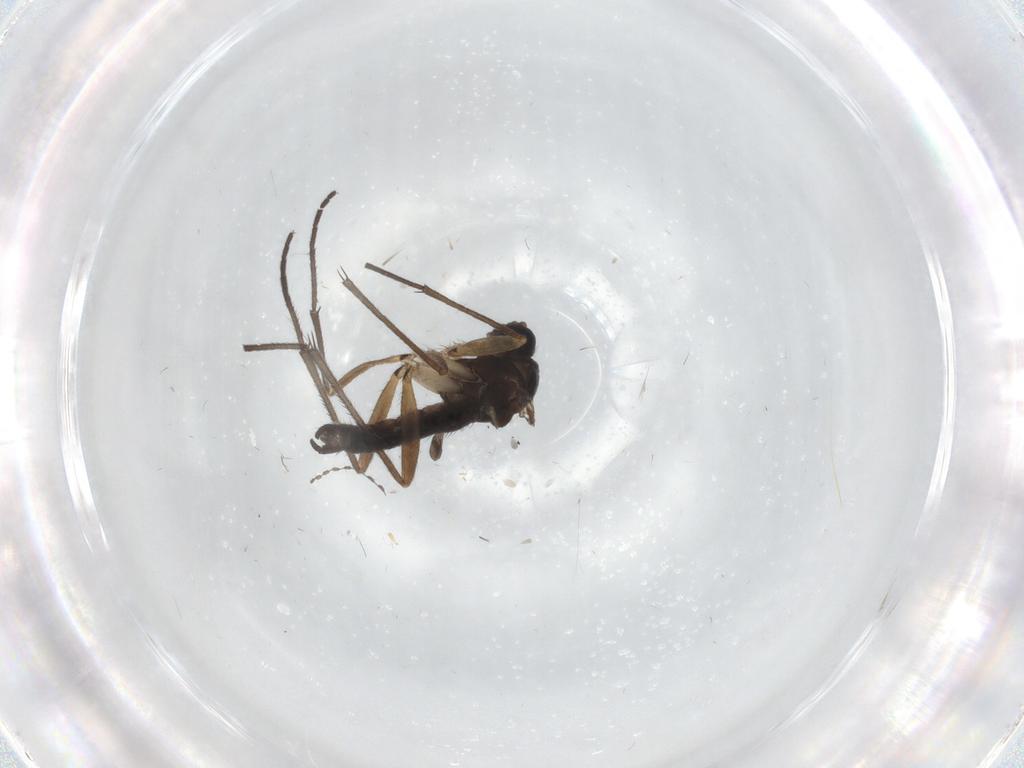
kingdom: Animalia
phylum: Arthropoda
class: Insecta
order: Diptera
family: Sciaridae
